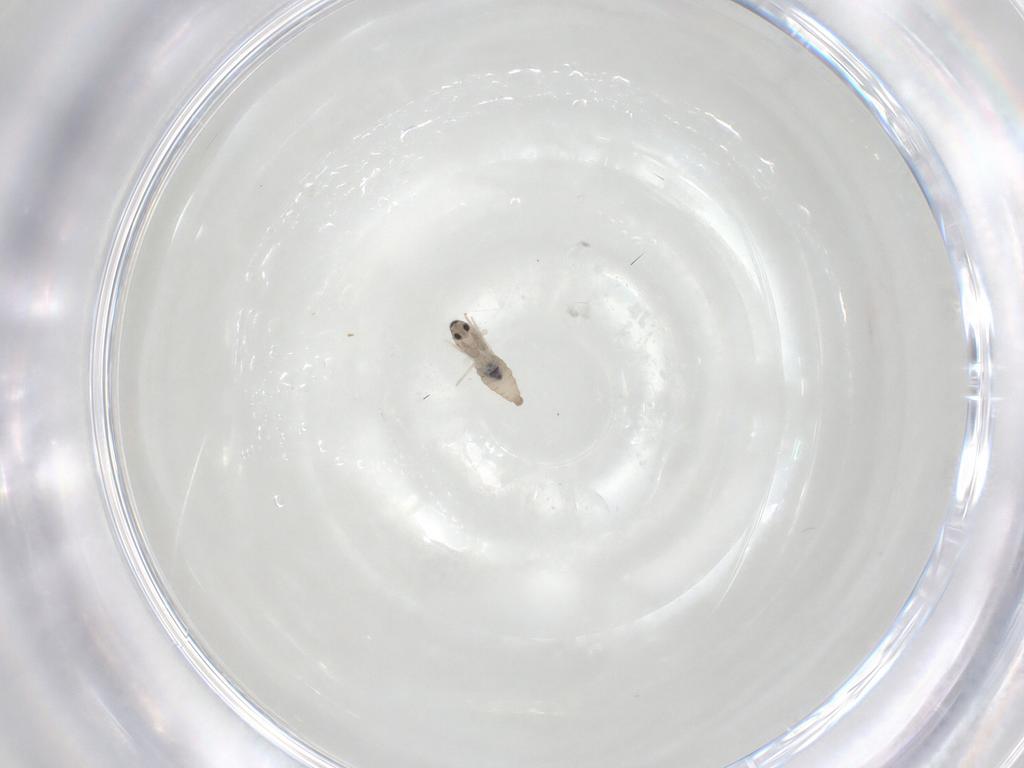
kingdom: Animalia
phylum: Arthropoda
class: Insecta
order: Diptera
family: Cecidomyiidae
